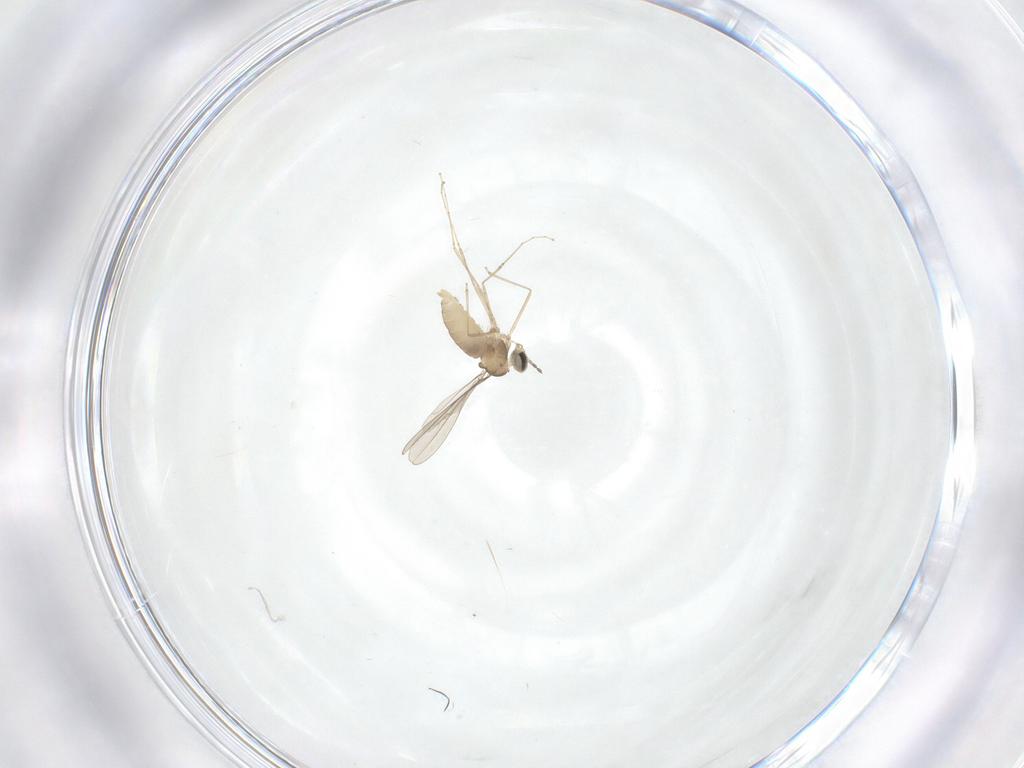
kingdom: Animalia
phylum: Arthropoda
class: Insecta
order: Diptera
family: Cecidomyiidae
